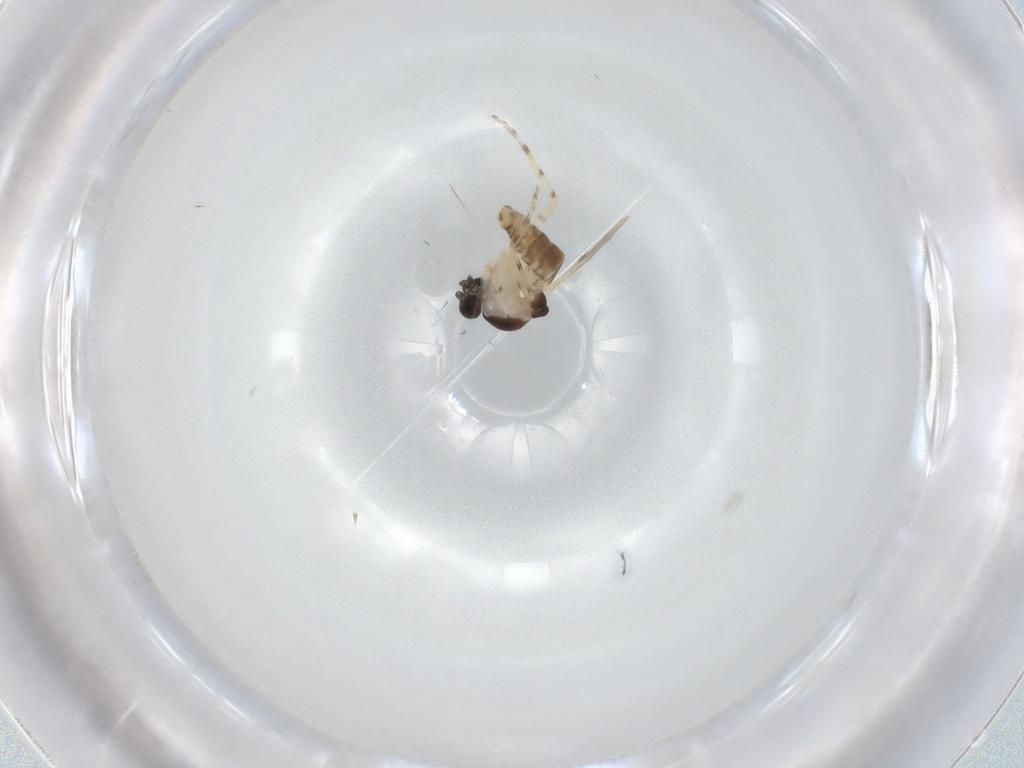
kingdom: Animalia
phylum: Arthropoda
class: Insecta
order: Diptera
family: Ceratopogonidae
